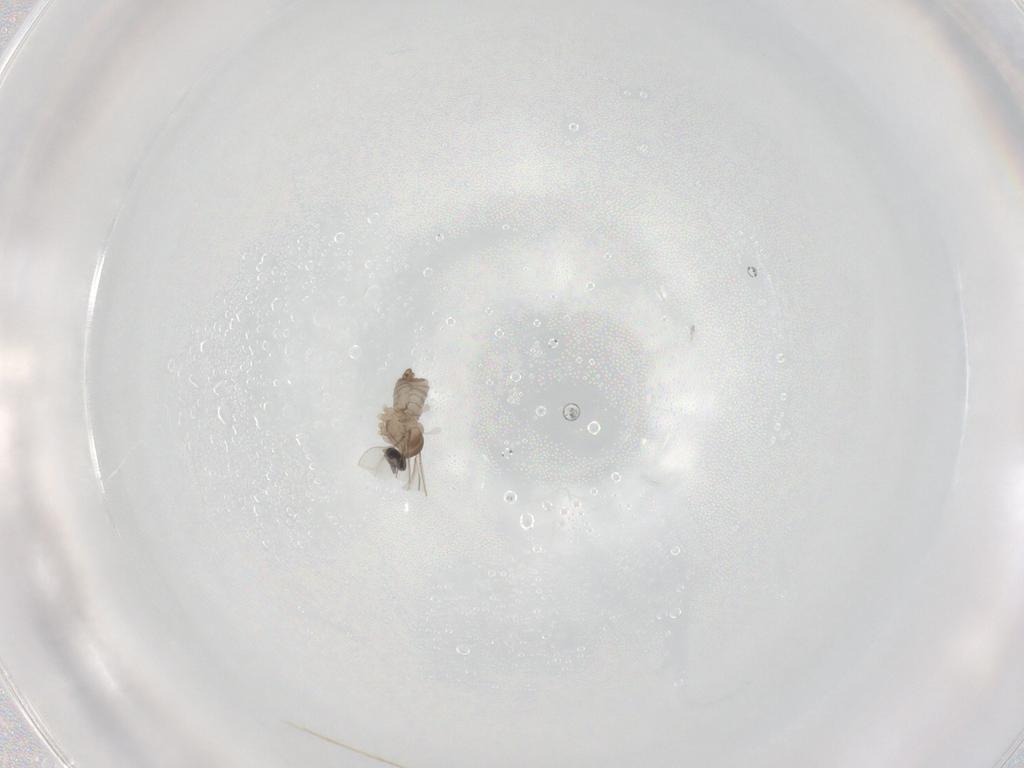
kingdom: Animalia
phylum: Arthropoda
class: Insecta
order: Diptera
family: Cecidomyiidae
